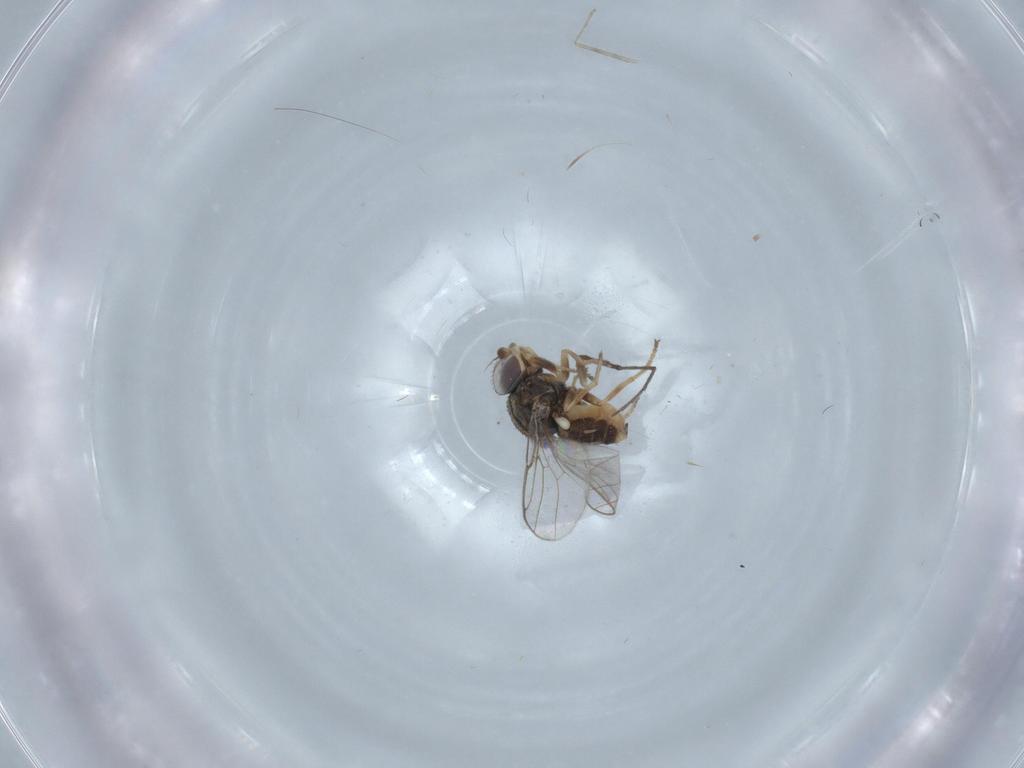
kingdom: Animalia
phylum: Arthropoda
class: Insecta
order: Diptera
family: Chloropidae
